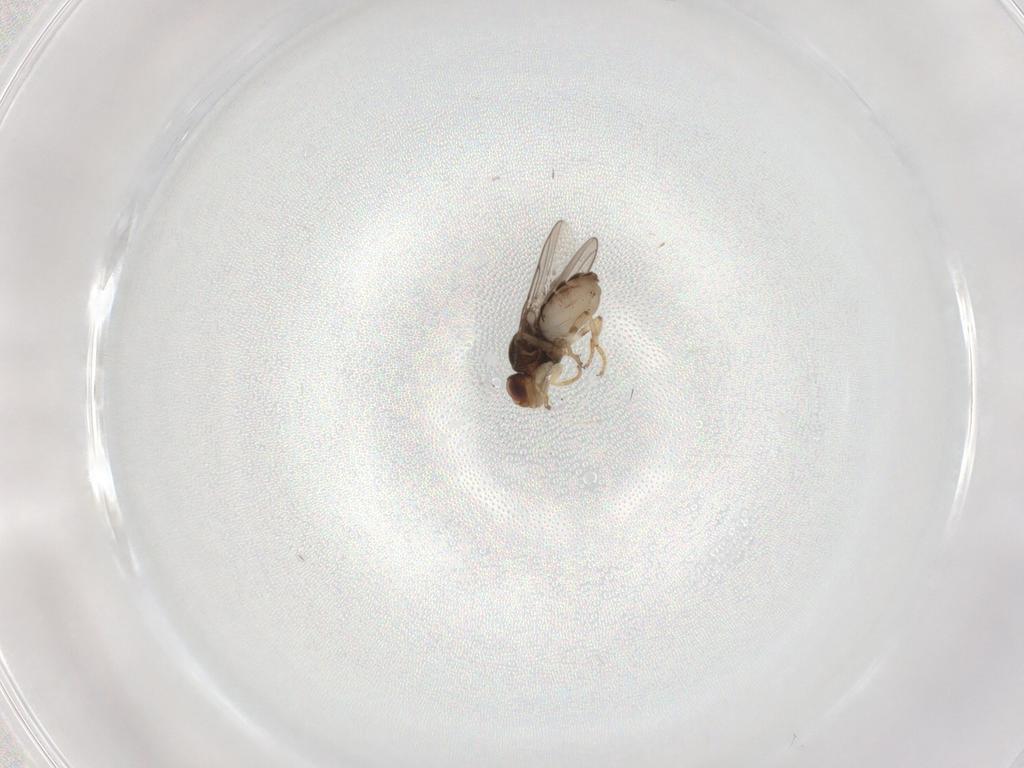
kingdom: Animalia
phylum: Arthropoda
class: Insecta
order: Diptera
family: Chloropidae
